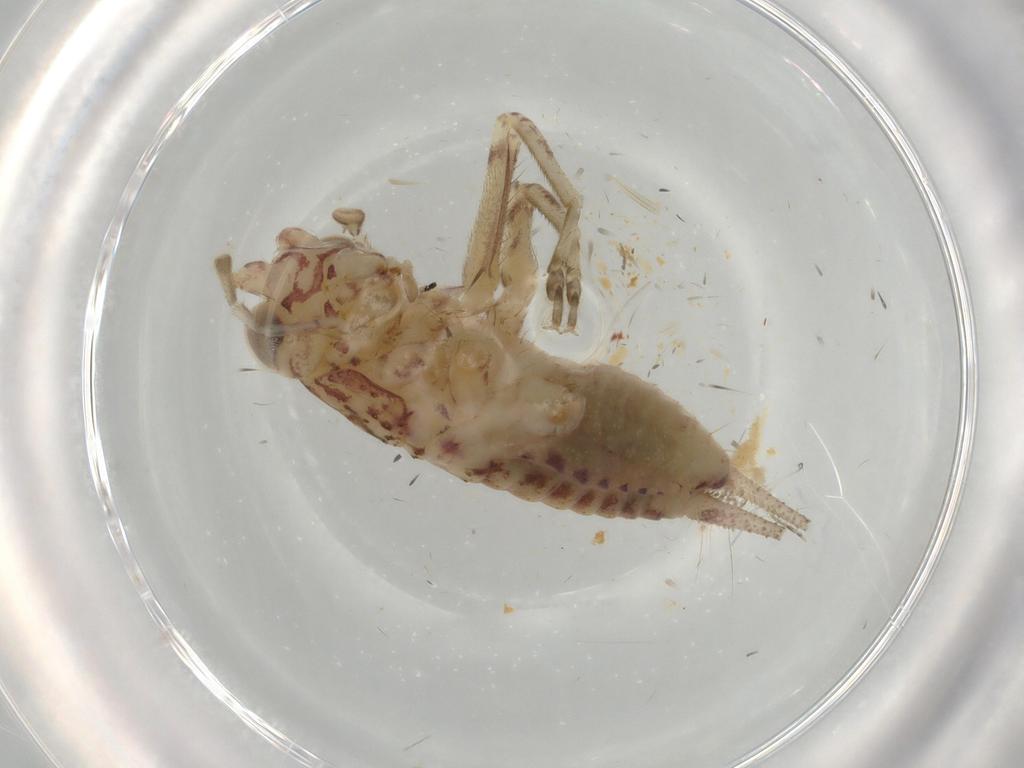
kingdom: Animalia
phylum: Arthropoda
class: Insecta
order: Orthoptera
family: Trigonidiidae
